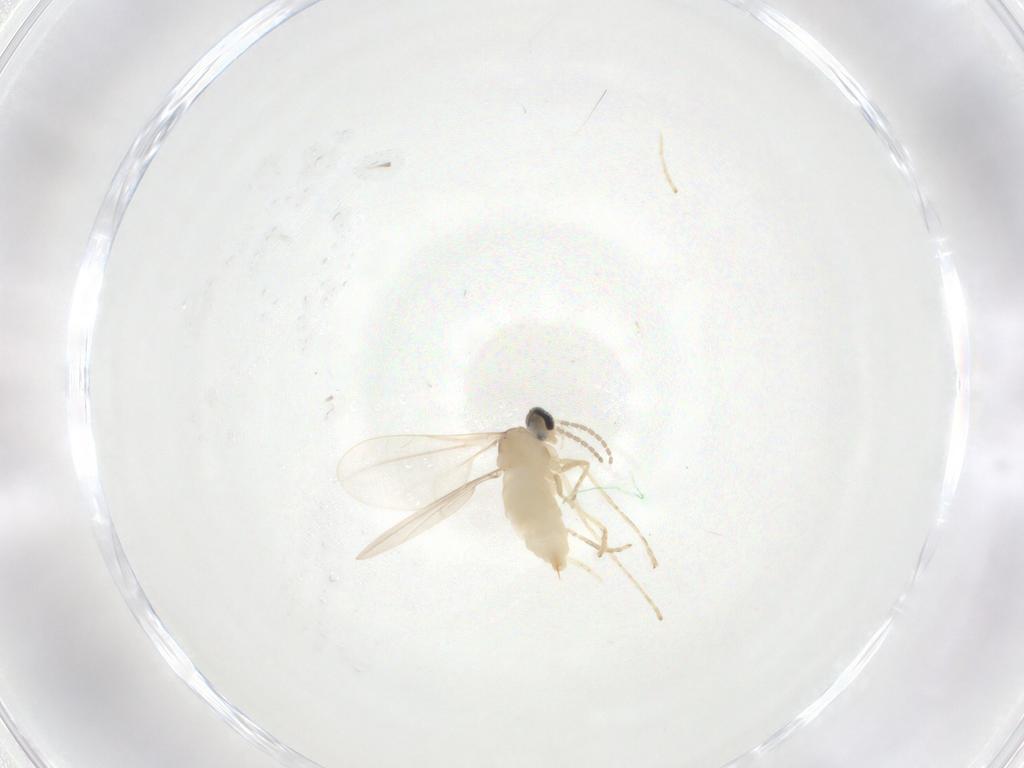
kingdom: Animalia
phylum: Arthropoda
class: Insecta
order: Diptera
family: Cecidomyiidae
